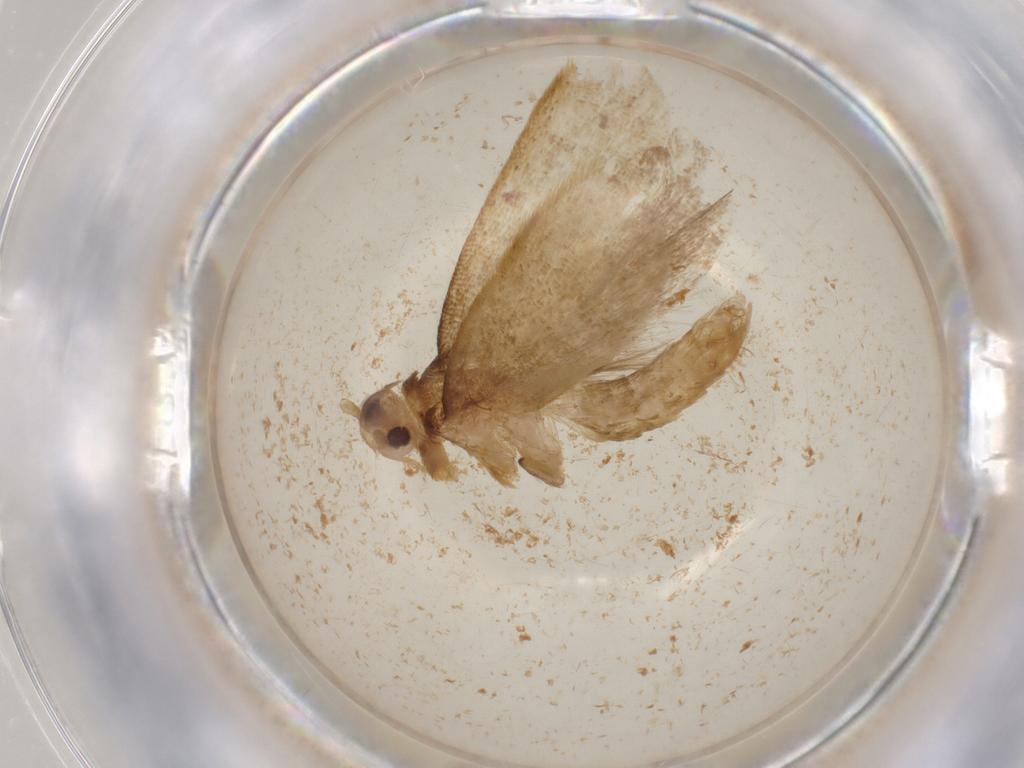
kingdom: Animalia
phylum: Arthropoda
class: Insecta
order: Lepidoptera
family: Lecithoceridae
